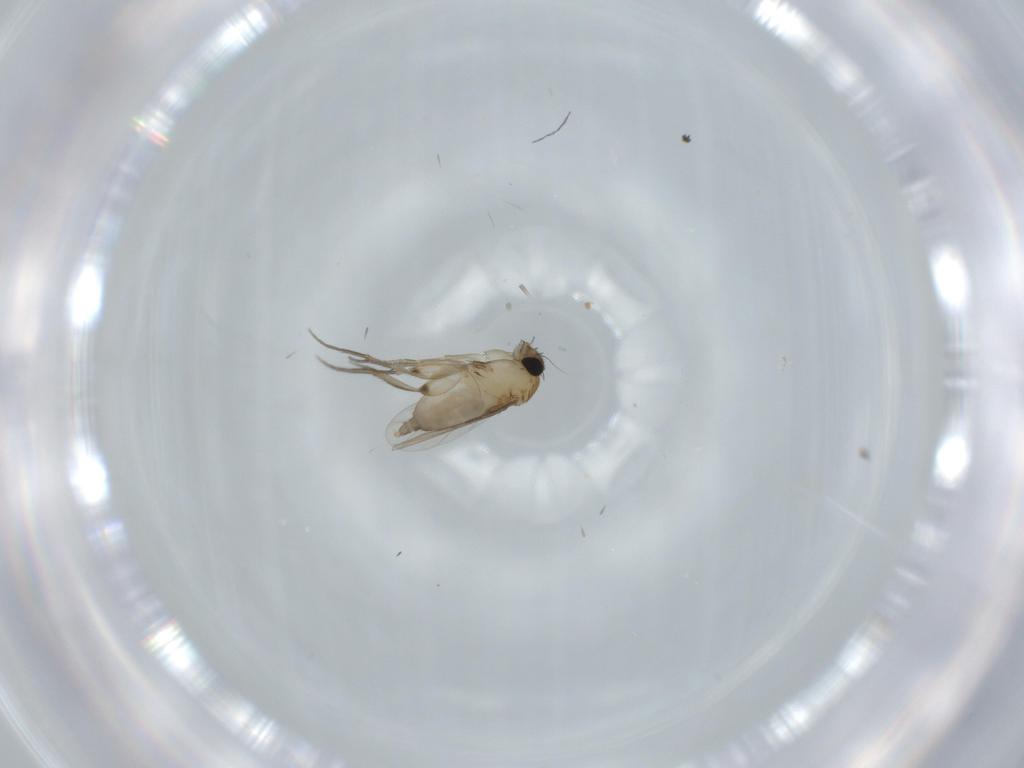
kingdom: Animalia
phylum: Arthropoda
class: Insecta
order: Diptera
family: Phoridae
